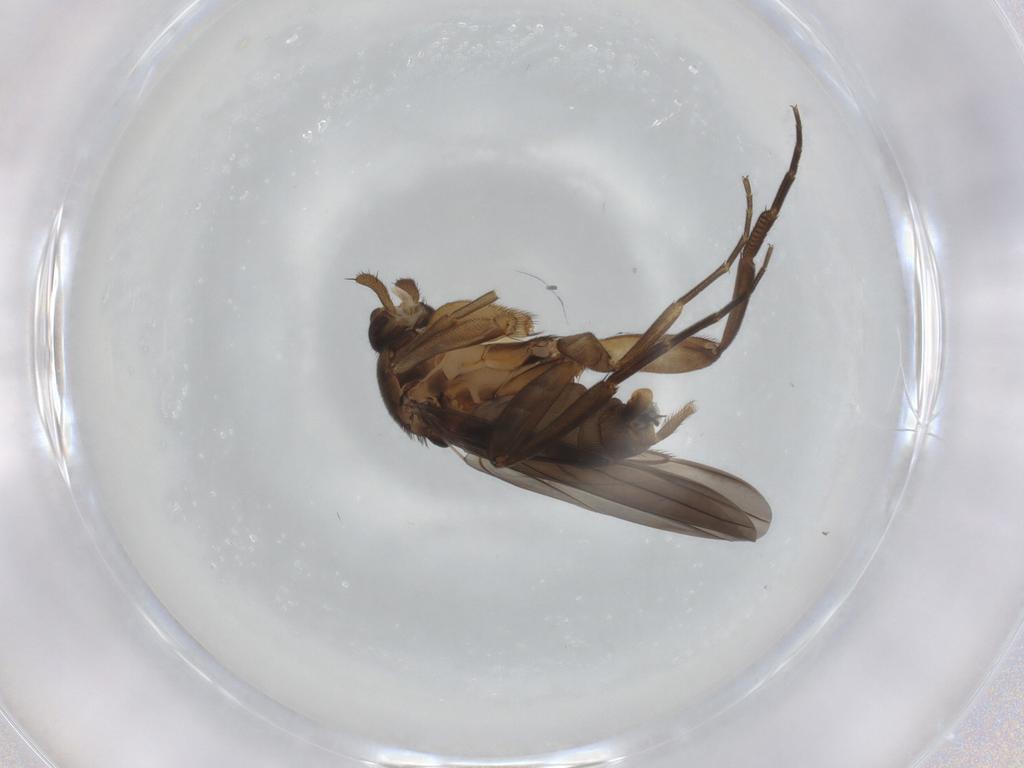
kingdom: Animalia
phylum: Arthropoda
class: Insecta
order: Diptera
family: Phoridae
